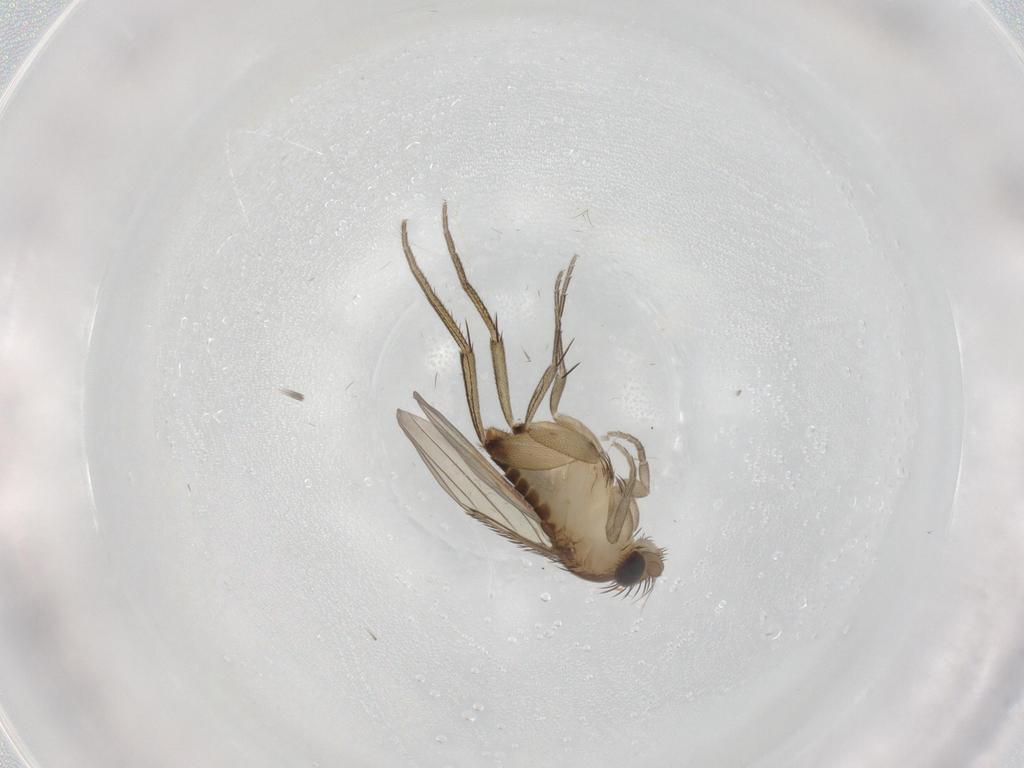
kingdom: Animalia
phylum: Arthropoda
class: Insecta
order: Diptera
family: Phoridae
